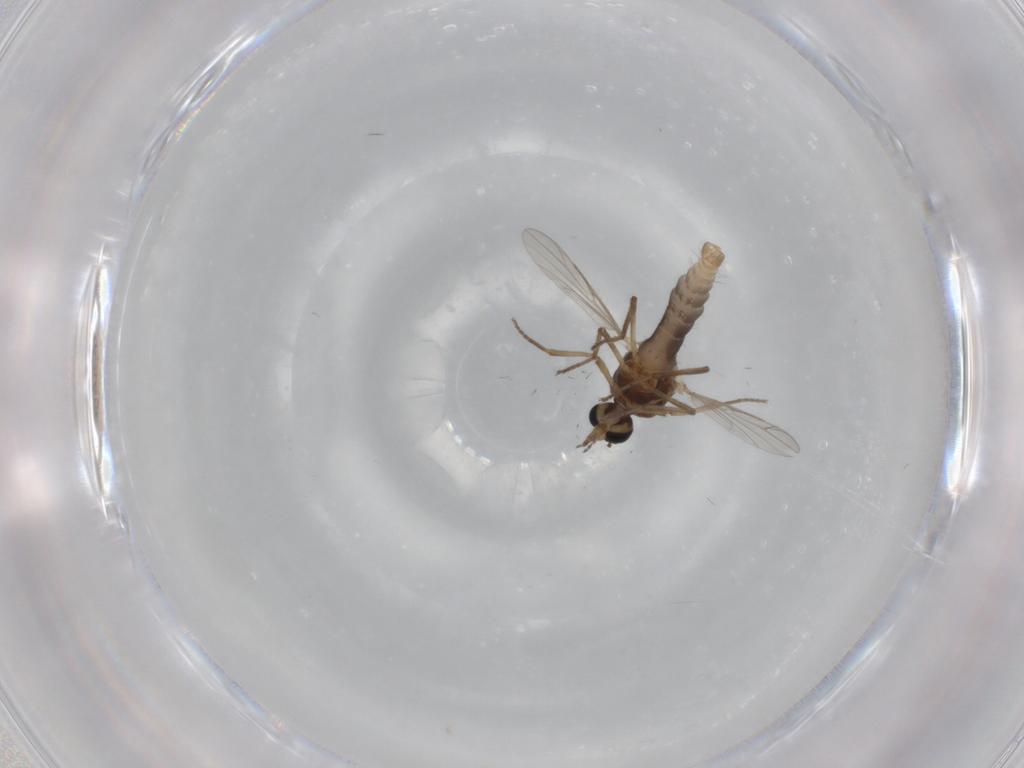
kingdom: Animalia
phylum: Arthropoda
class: Insecta
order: Diptera
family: Ceratopogonidae
